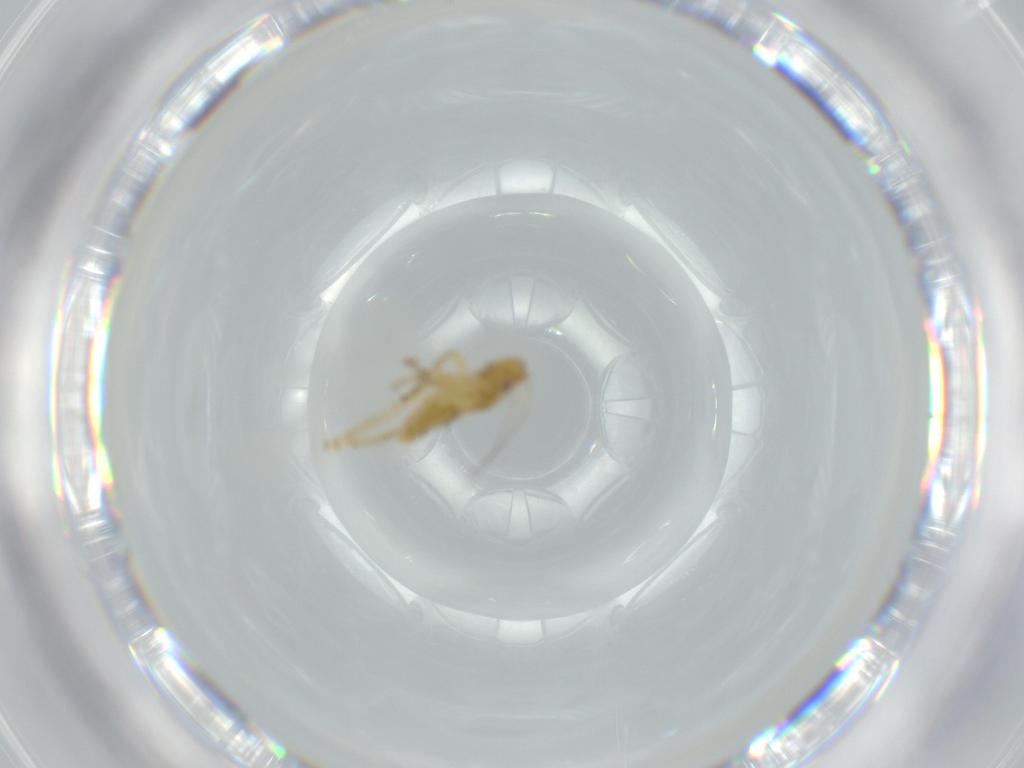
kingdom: Animalia
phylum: Arthropoda
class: Insecta
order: Hemiptera
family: Cicadellidae
